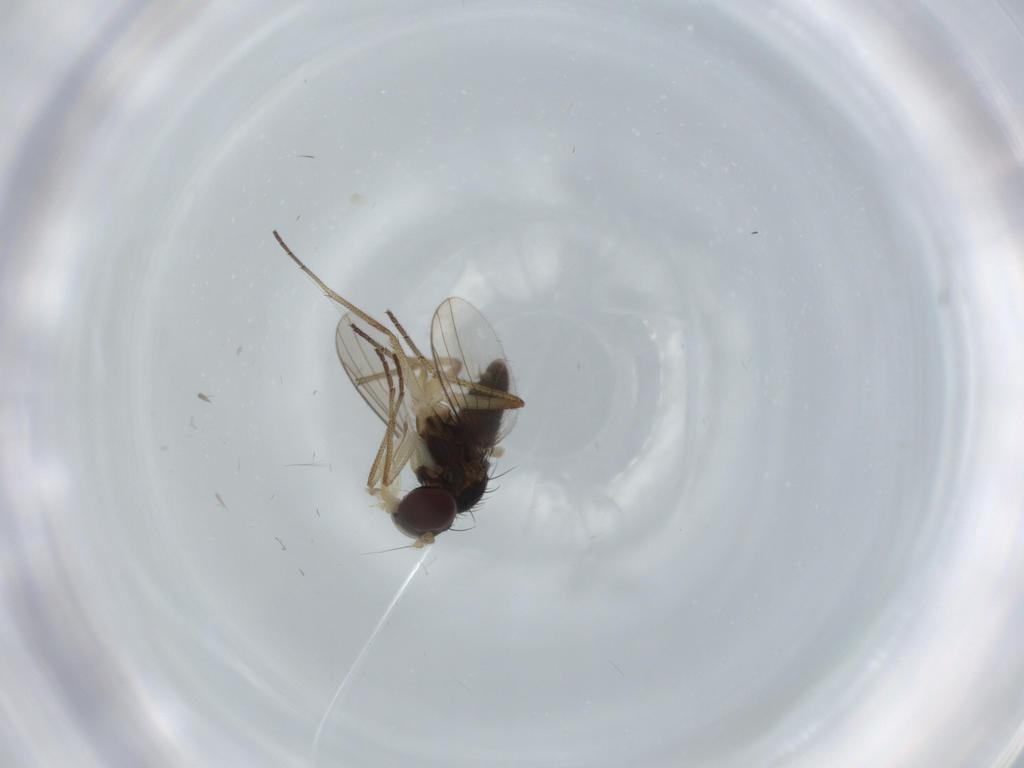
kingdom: Animalia
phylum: Arthropoda
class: Insecta
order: Diptera
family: Dolichopodidae
